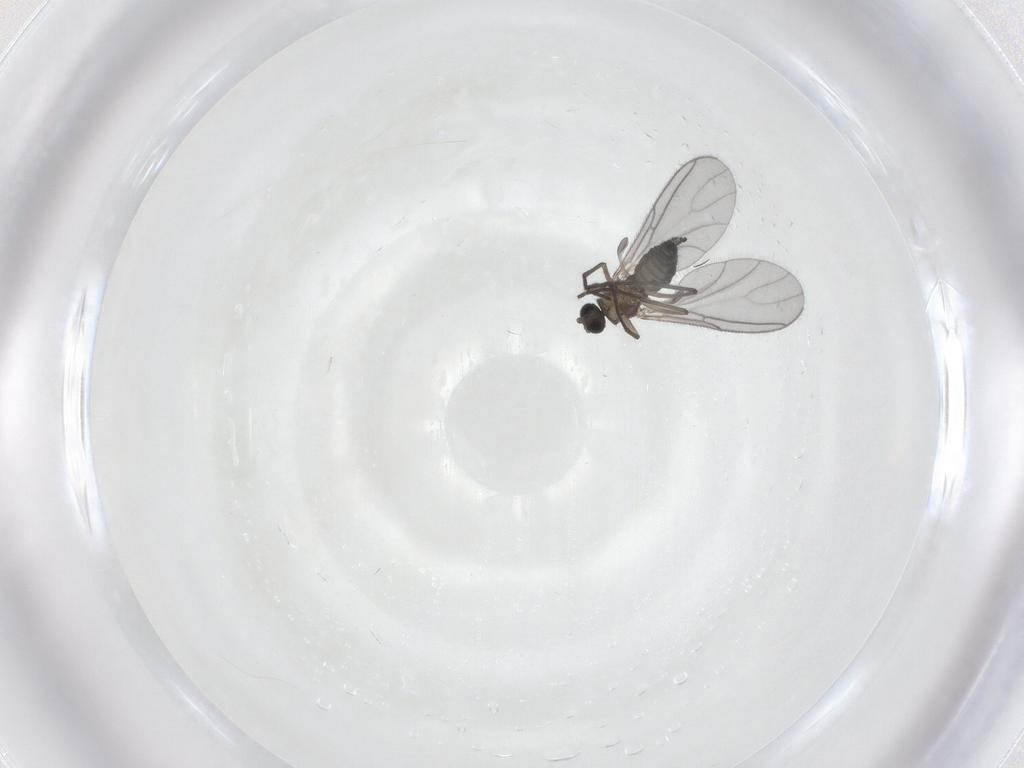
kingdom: Animalia
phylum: Arthropoda
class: Insecta
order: Diptera
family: Sciaridae
